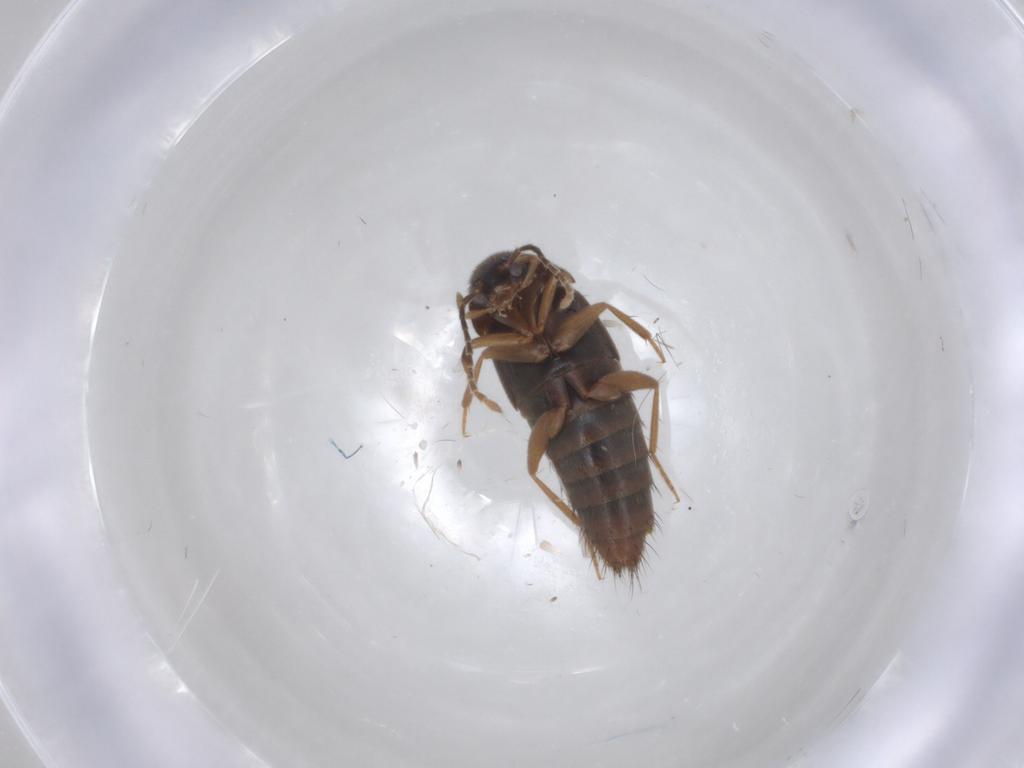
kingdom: Animalia
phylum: Arthropoda
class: Insecta
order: Coleoptera
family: Staphylinidae
